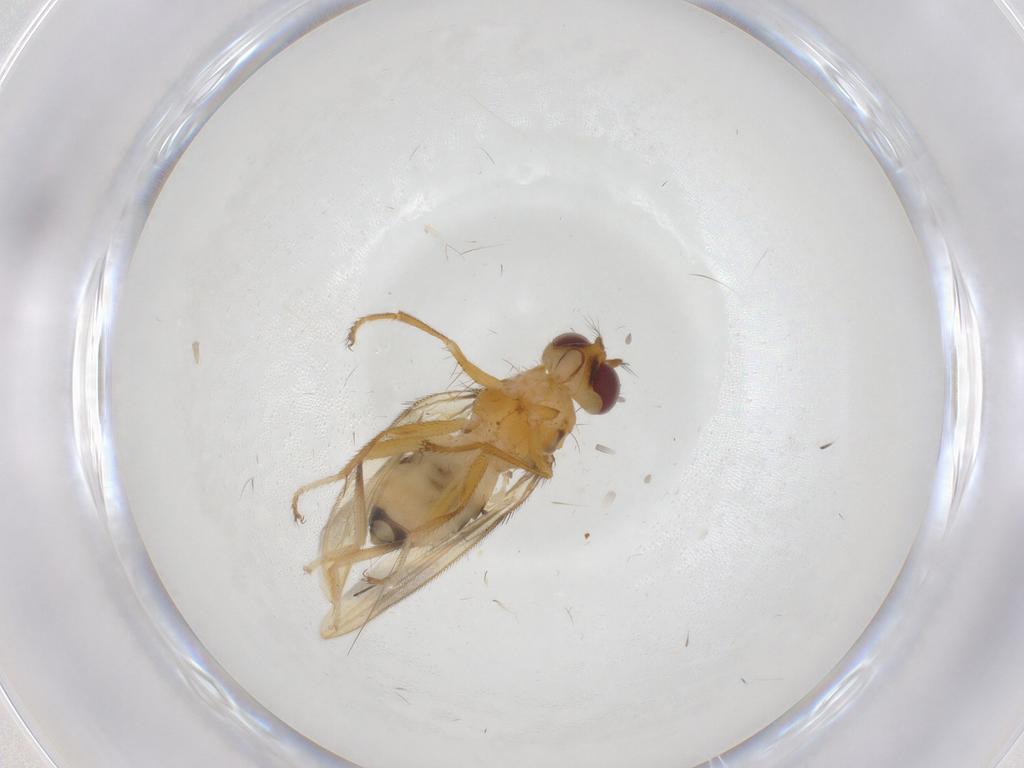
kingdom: Animalia
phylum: Arthropoda
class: Insecta
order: Diptera
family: Periscelididae
